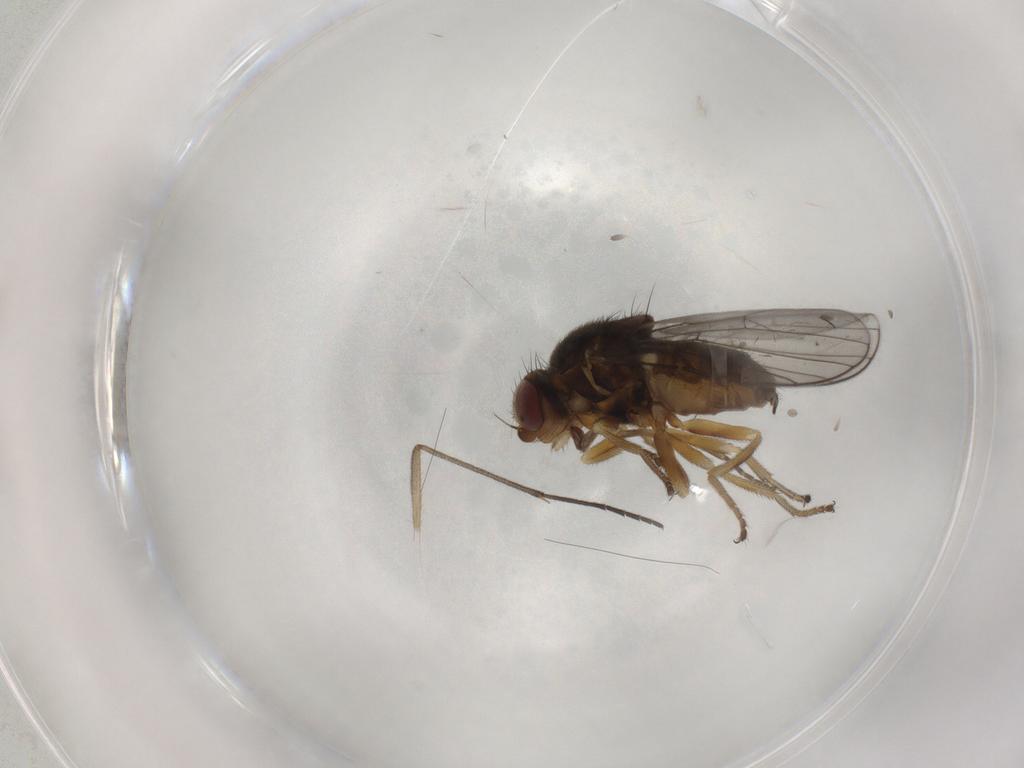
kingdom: Animalia
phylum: Arthropoda
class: Insecta
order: Diptera
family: Chloropidae
